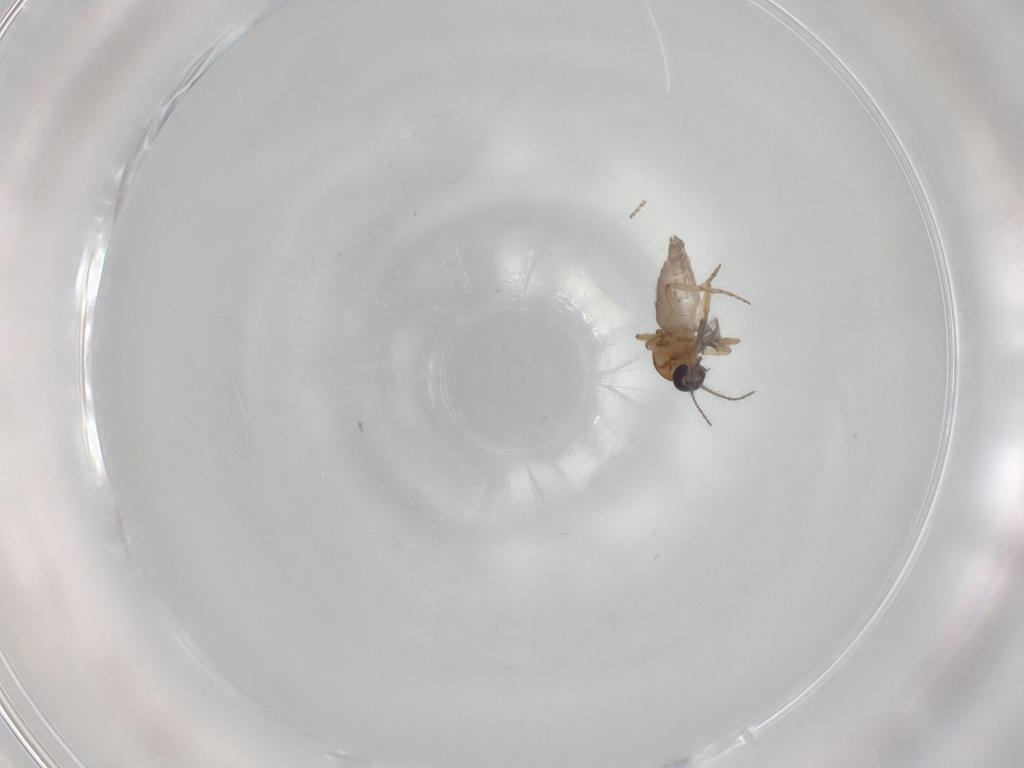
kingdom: Animalia
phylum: Arthropoda
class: Insecta
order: Diptera
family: Ceratopogonidae
